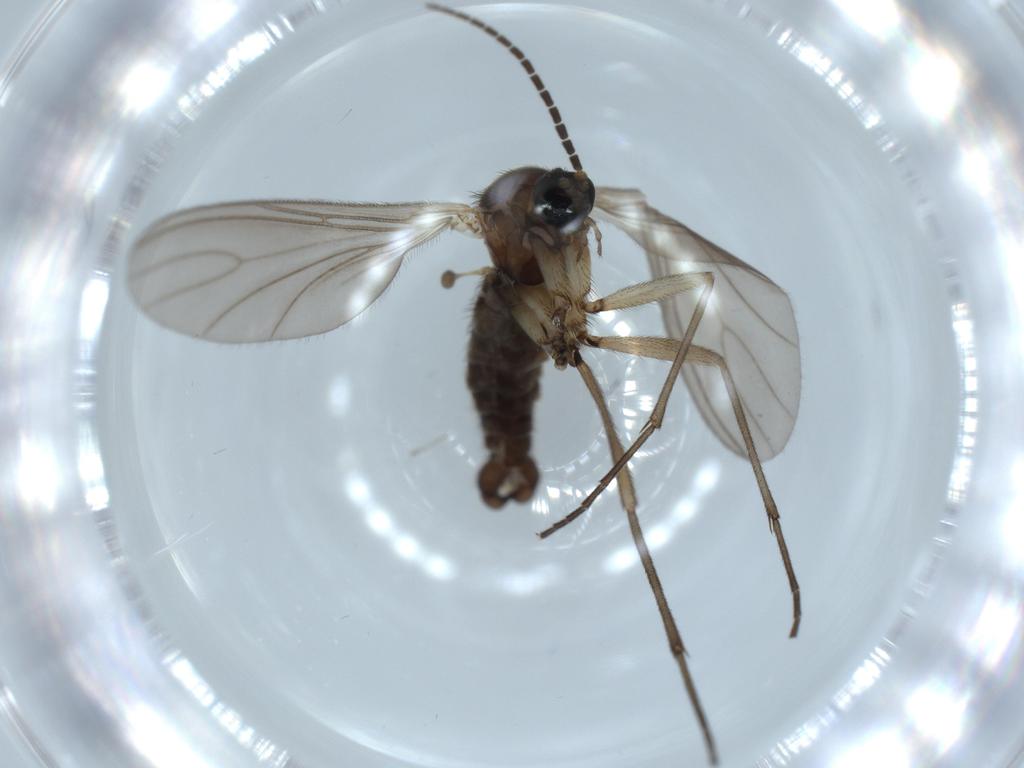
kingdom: Animalia
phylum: Arthropoda
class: Insecta
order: Diptera
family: Sciaridae
